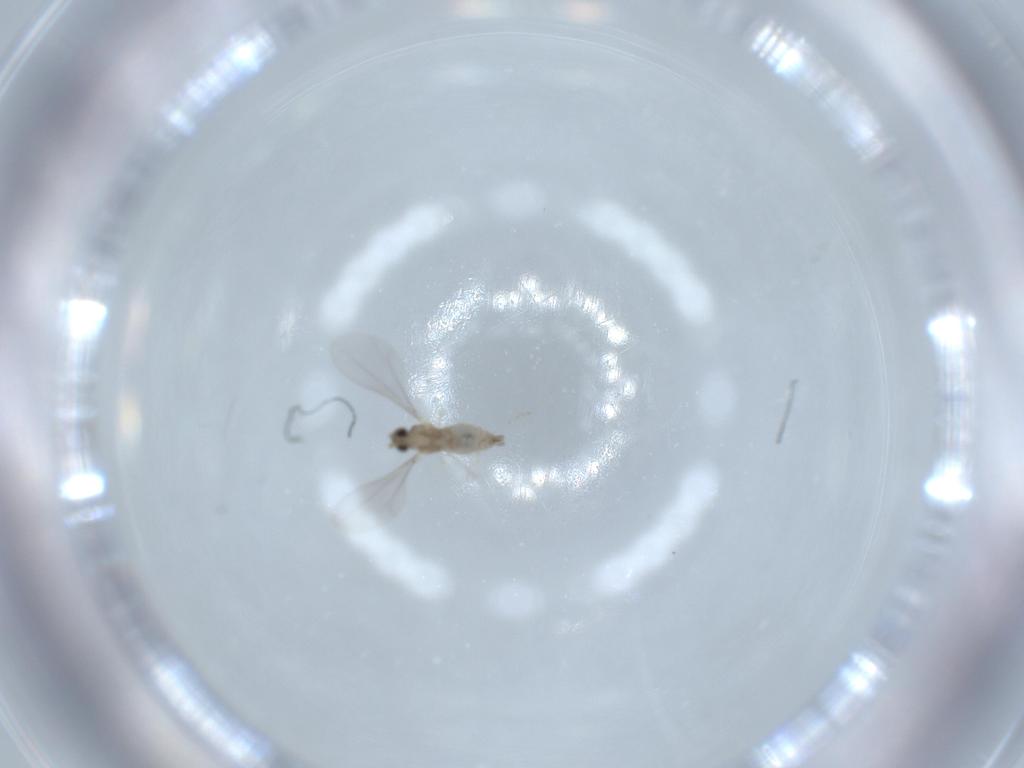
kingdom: Animalia
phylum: Arthropoda
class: Insecta
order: Diptera
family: Cecidomyiidae
